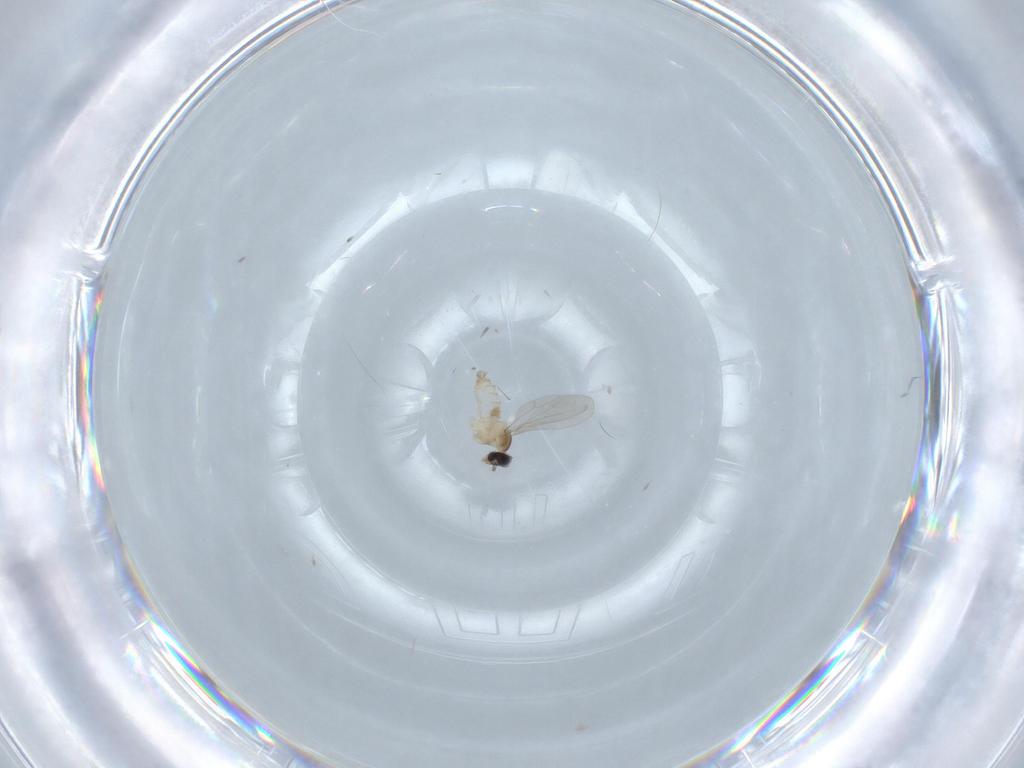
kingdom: Animalia
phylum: Arthropoda
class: Insecta
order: Diptera
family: Cecidomyiidae
